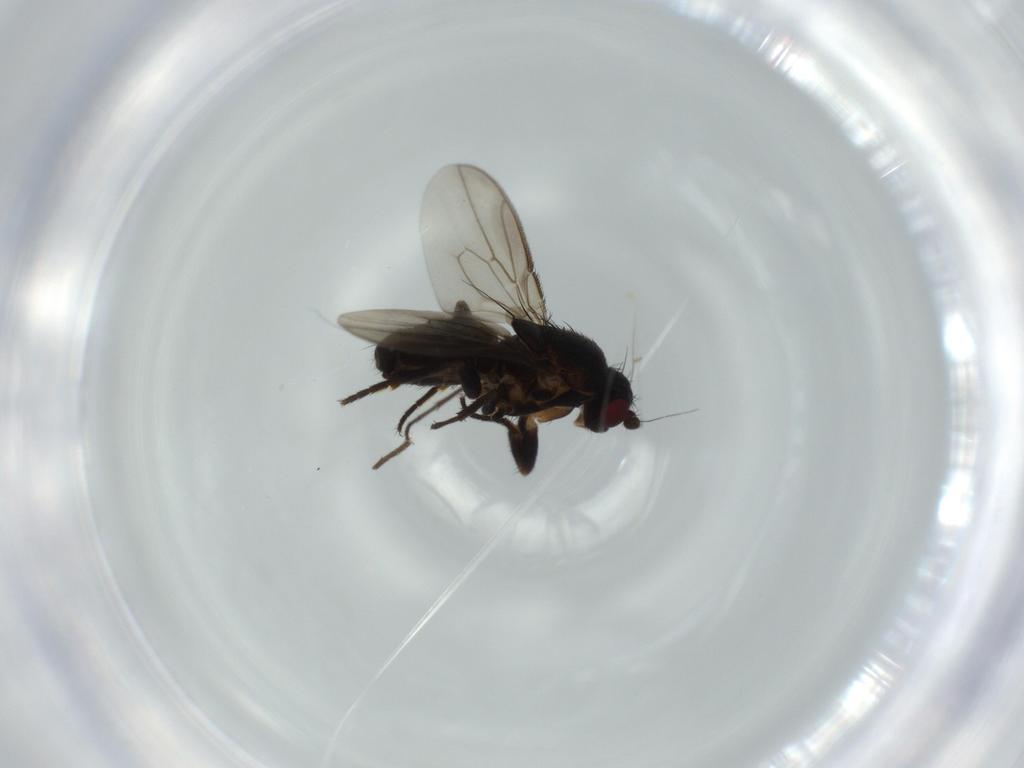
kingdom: Animalia
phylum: Arthropoda
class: Insecta
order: Diptera
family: Sphaeroceridae
